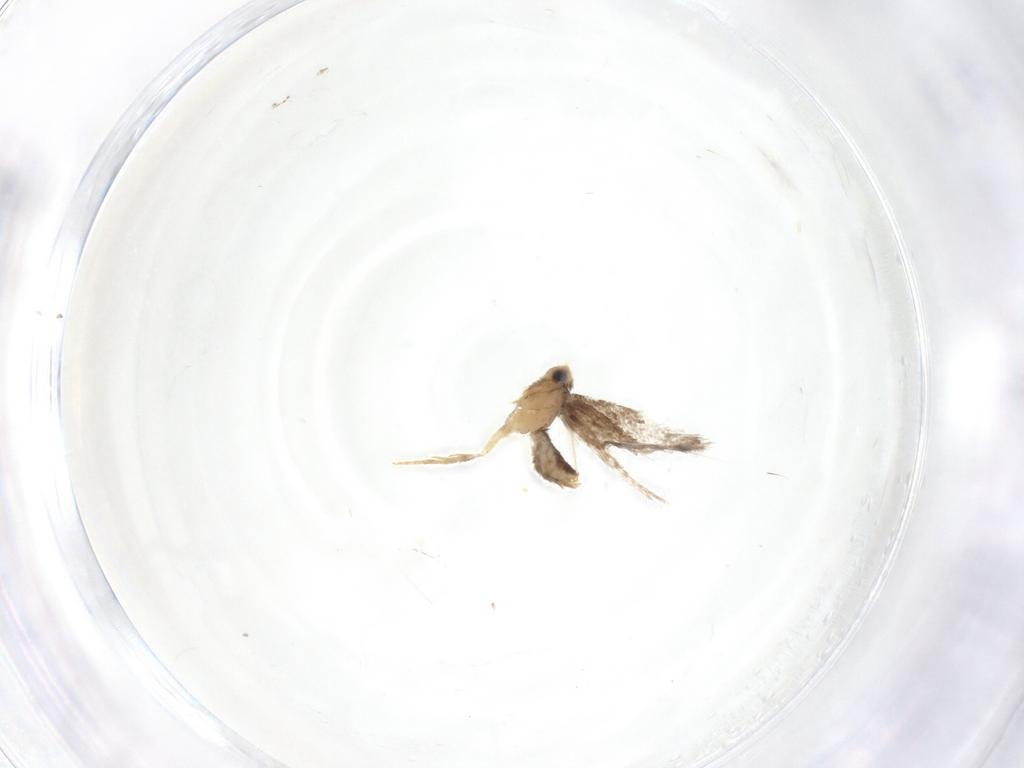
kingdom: Animalia
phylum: Arthropoda
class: Insecta
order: Lepidoptera
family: Nepticulidae
